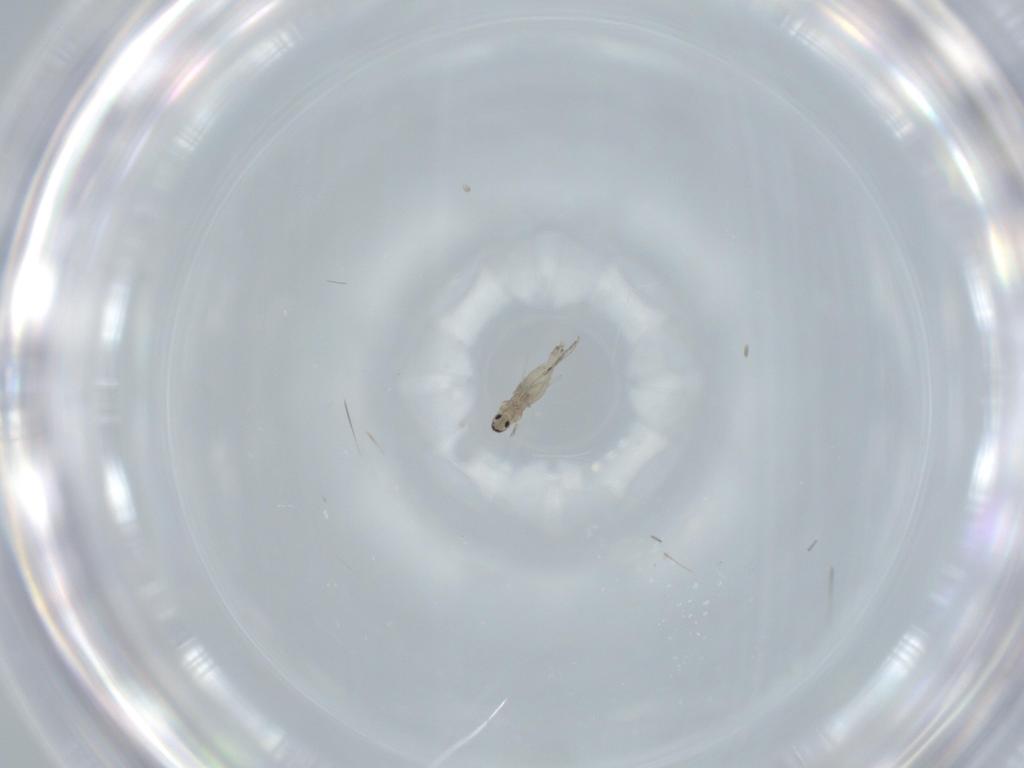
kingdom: Animalia
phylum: Arthropoda
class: Insecta
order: Diptera
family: Cecidomyiidae
